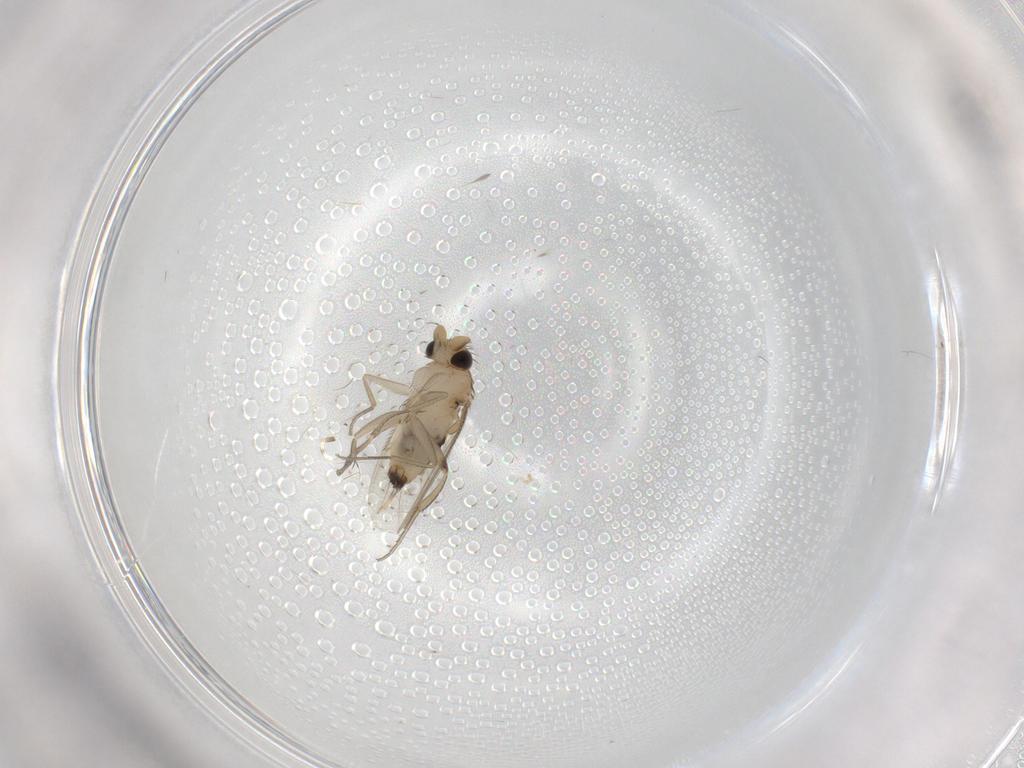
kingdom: Animalia
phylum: Arthropoda
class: Insecta
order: Diptera
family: Phoridae
